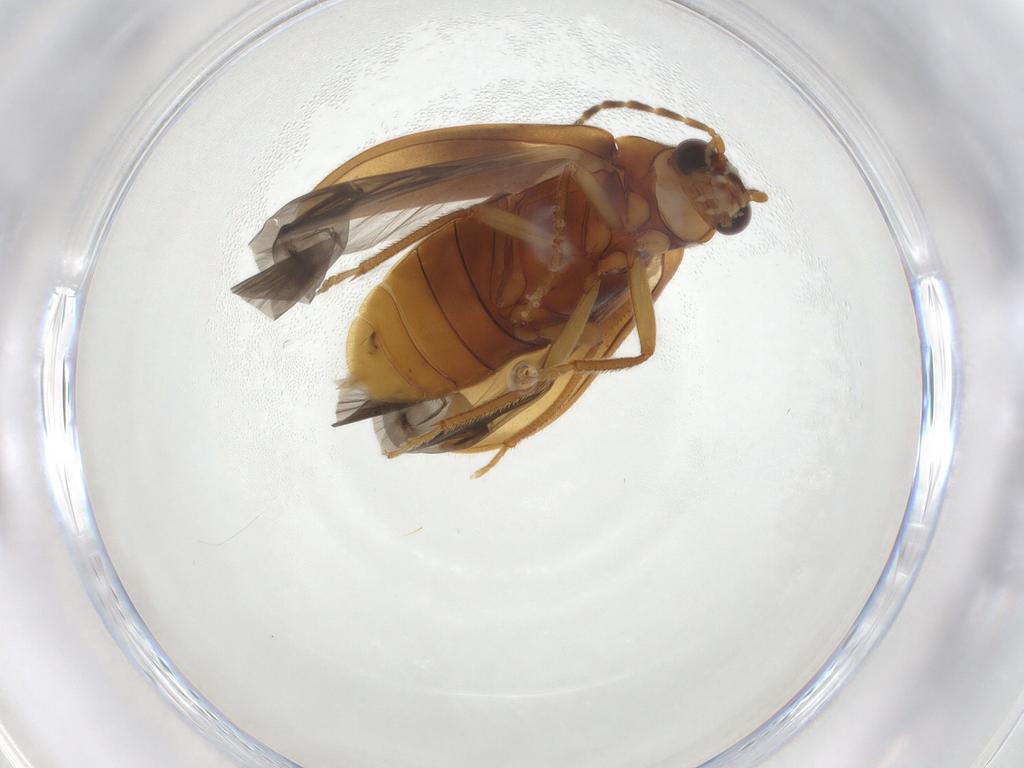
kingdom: Animalia
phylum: Arthropoda
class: Insecta
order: Coleoptera
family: Ptilodactylidae
